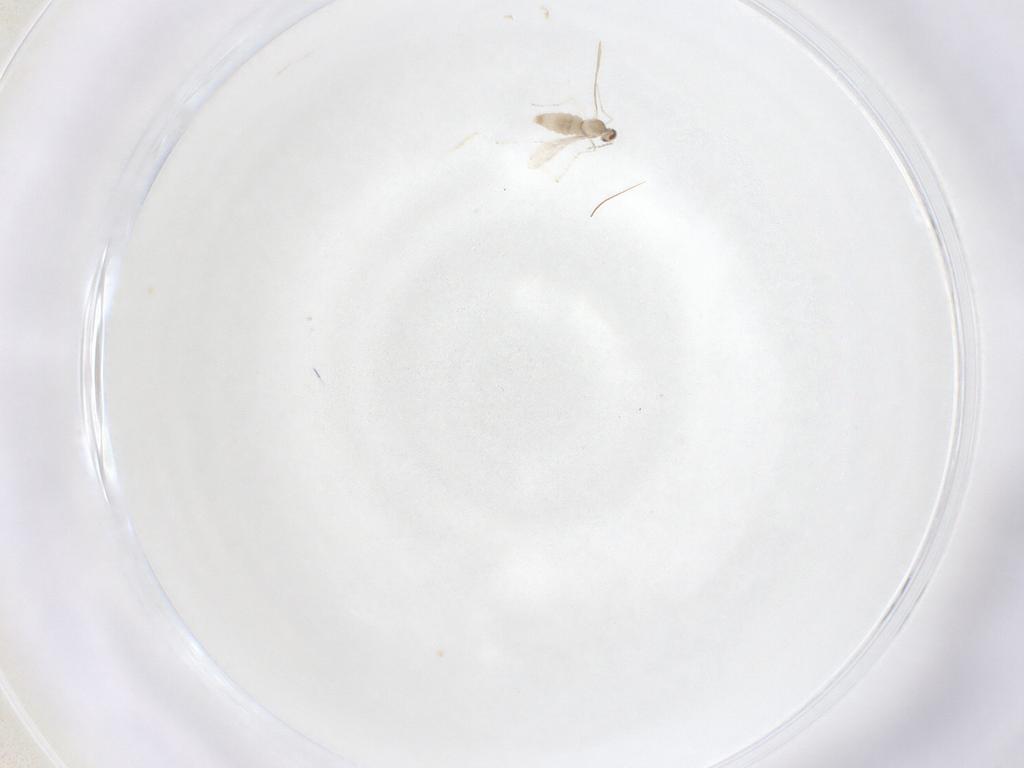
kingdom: Animalia
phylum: Arthropoda
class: Insecta
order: Diptera
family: Cecidomyiidae
